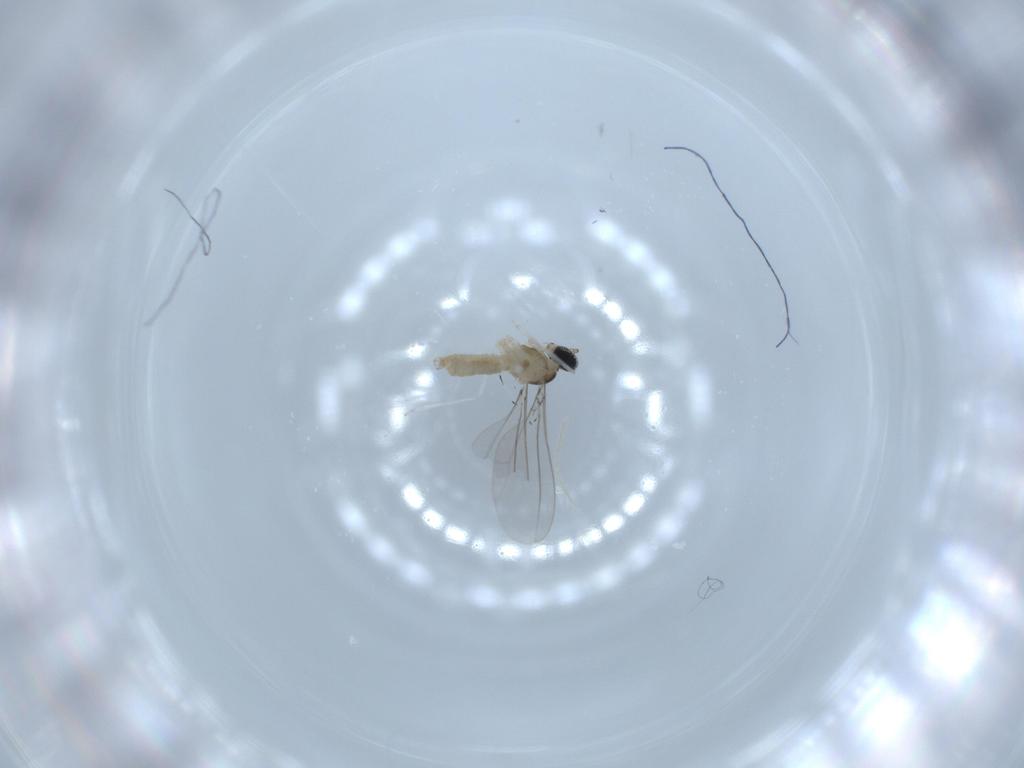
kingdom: Animalia
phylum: Arthropoda
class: Insecta
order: Diptera
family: Cecidomyiidae
